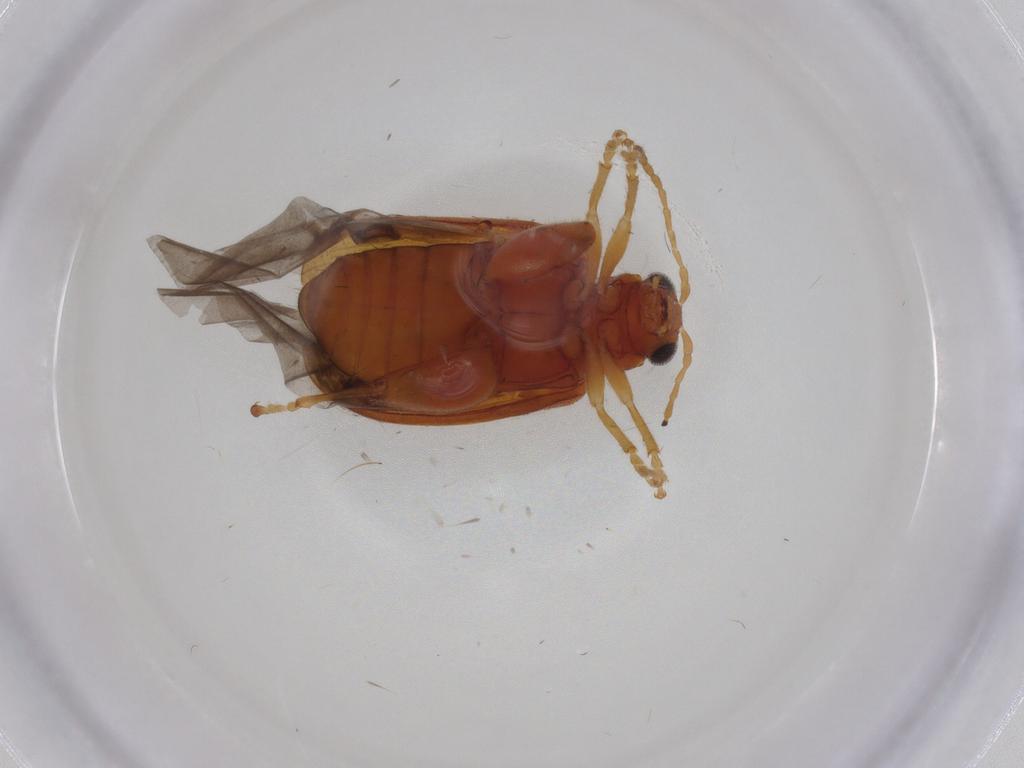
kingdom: Animalia
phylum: Arthropoda
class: Insecta
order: Coleoptera
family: Chrysomelidae
